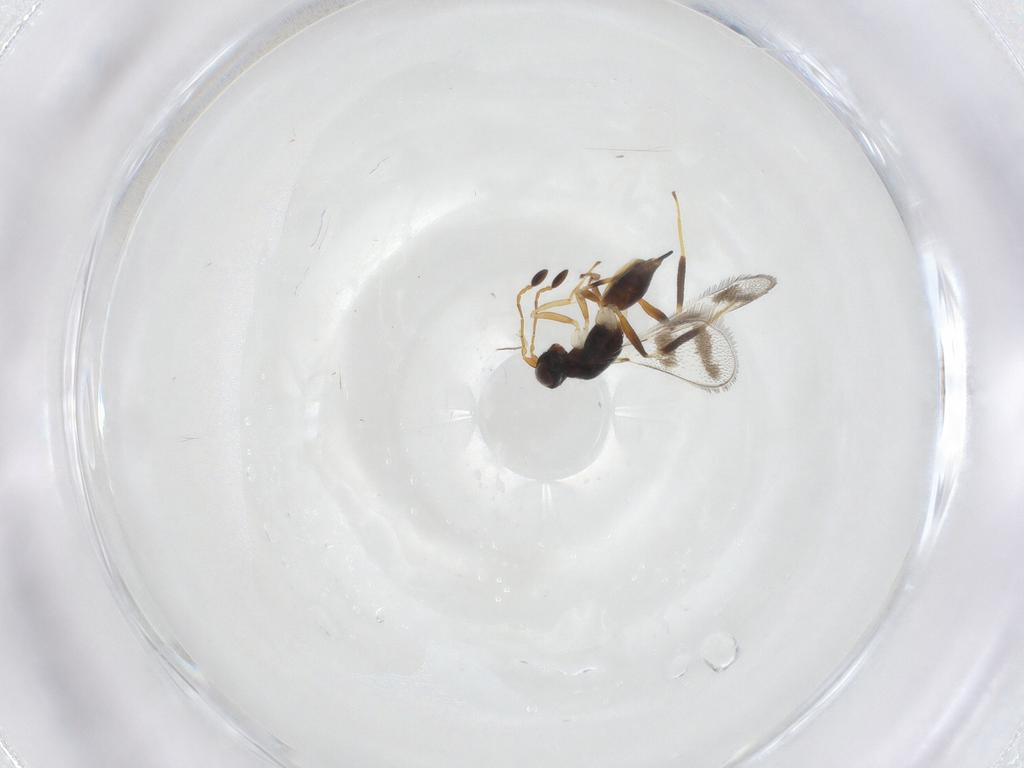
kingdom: Animalia
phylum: Arthropoda
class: Insecta
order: Hymenoptera
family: Mymaridae
